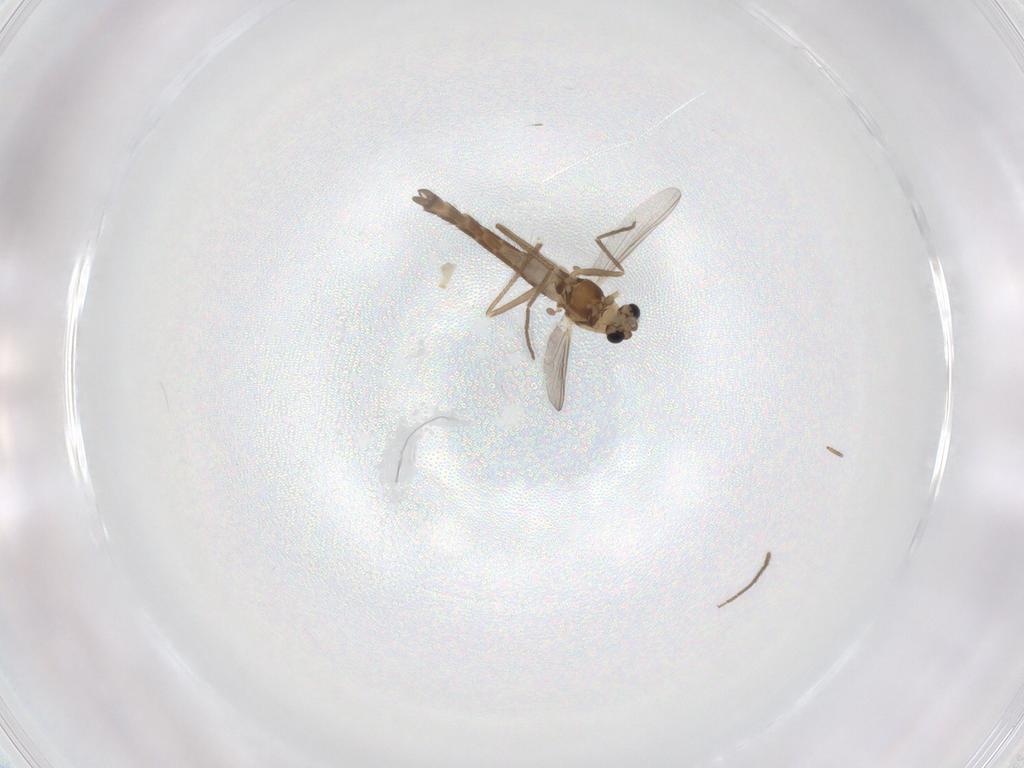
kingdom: Animalia
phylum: Arthropoda
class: Insecta
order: Diptera
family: Chironomidae
